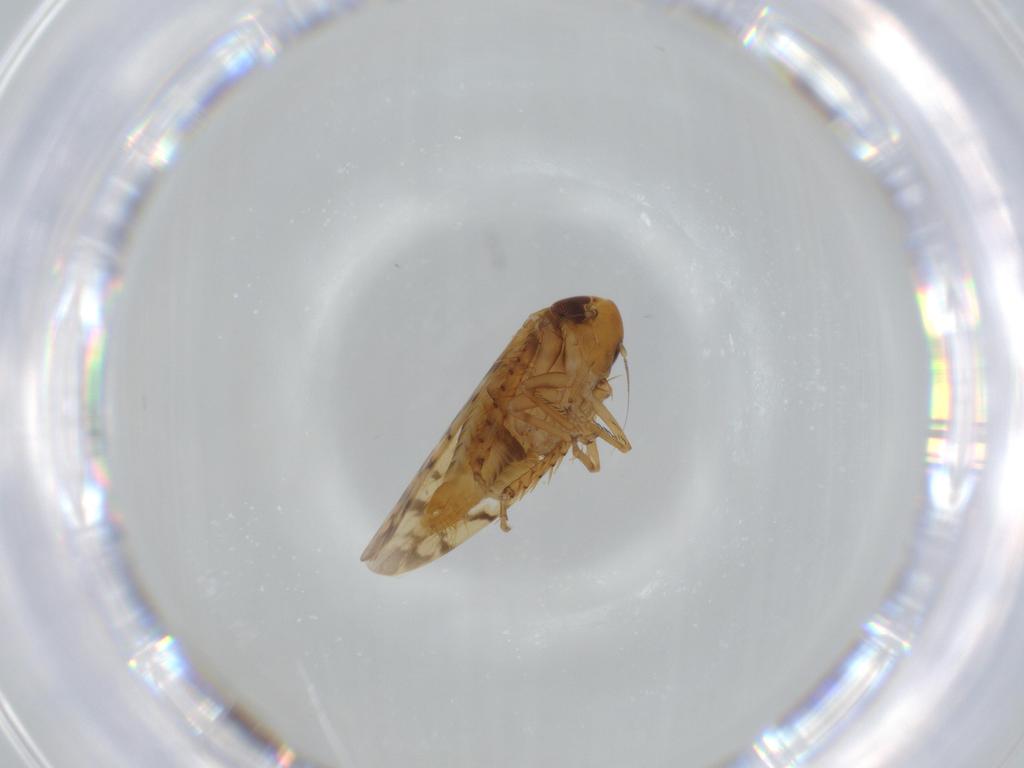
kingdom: Animalia
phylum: Arthropoda
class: Insecta
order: Hemiptera
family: Cicadellidae
